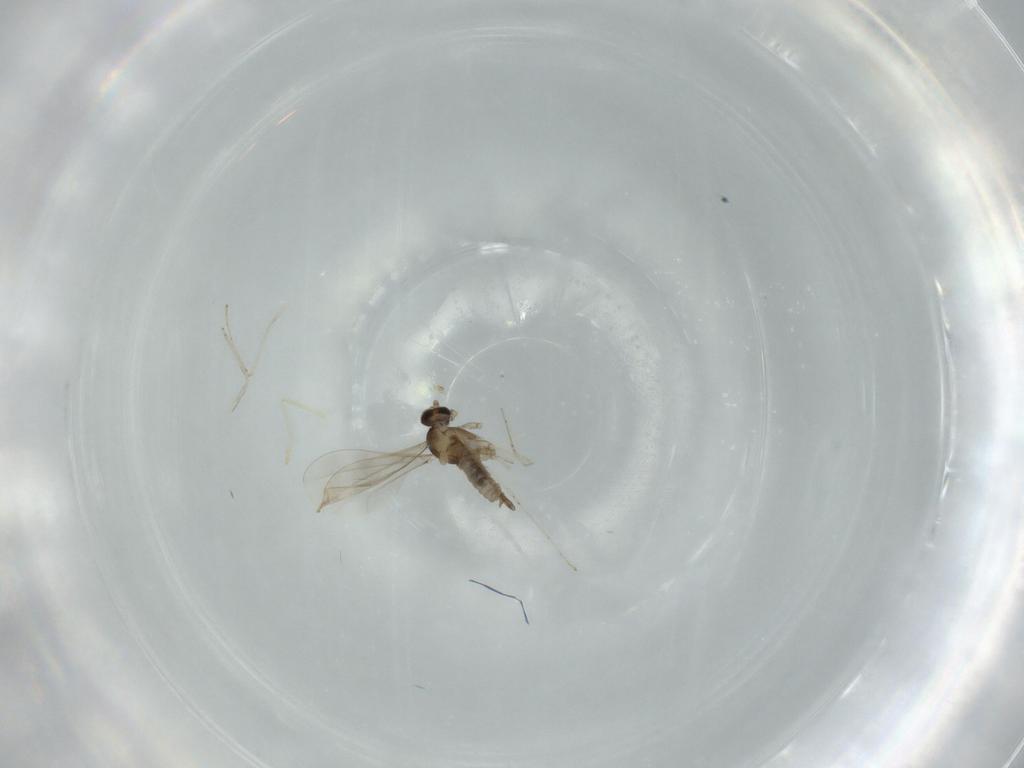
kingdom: Animalia
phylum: Arthropoda
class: Insecta
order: Diptera
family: Cecidomyiidae
